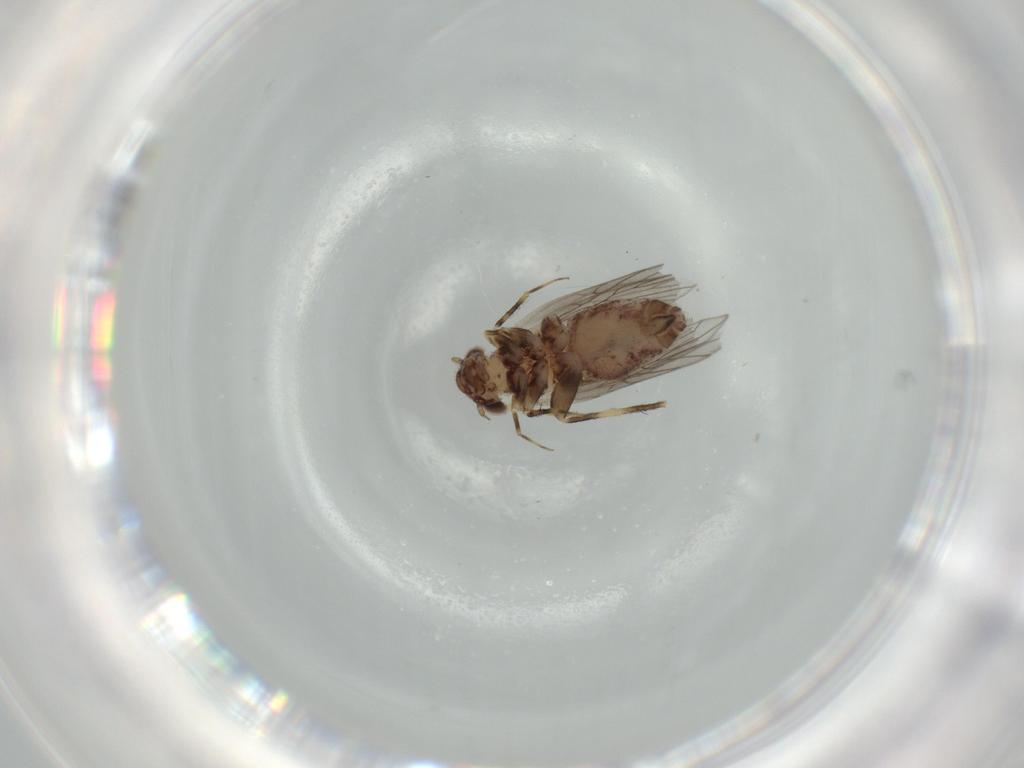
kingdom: Animalia
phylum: Arthropoda
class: Insecta
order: Psocodea
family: Lepidopsocidae
